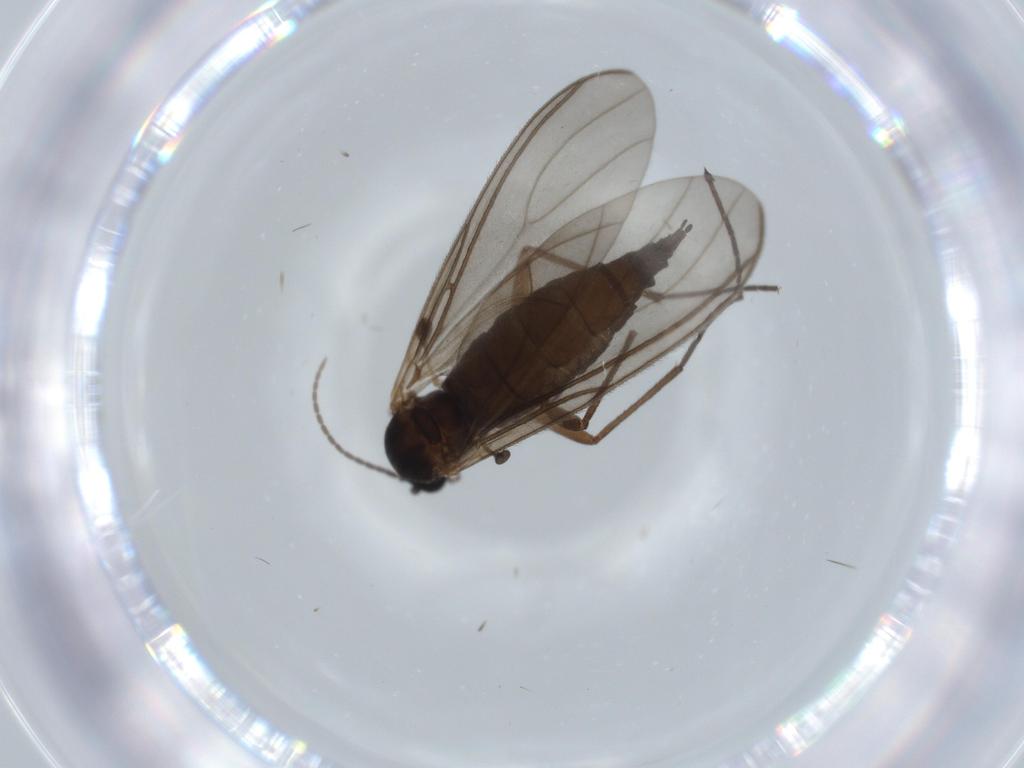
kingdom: Animalia
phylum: Arthropoda
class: Insecta
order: Diptera
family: Sciaridae
